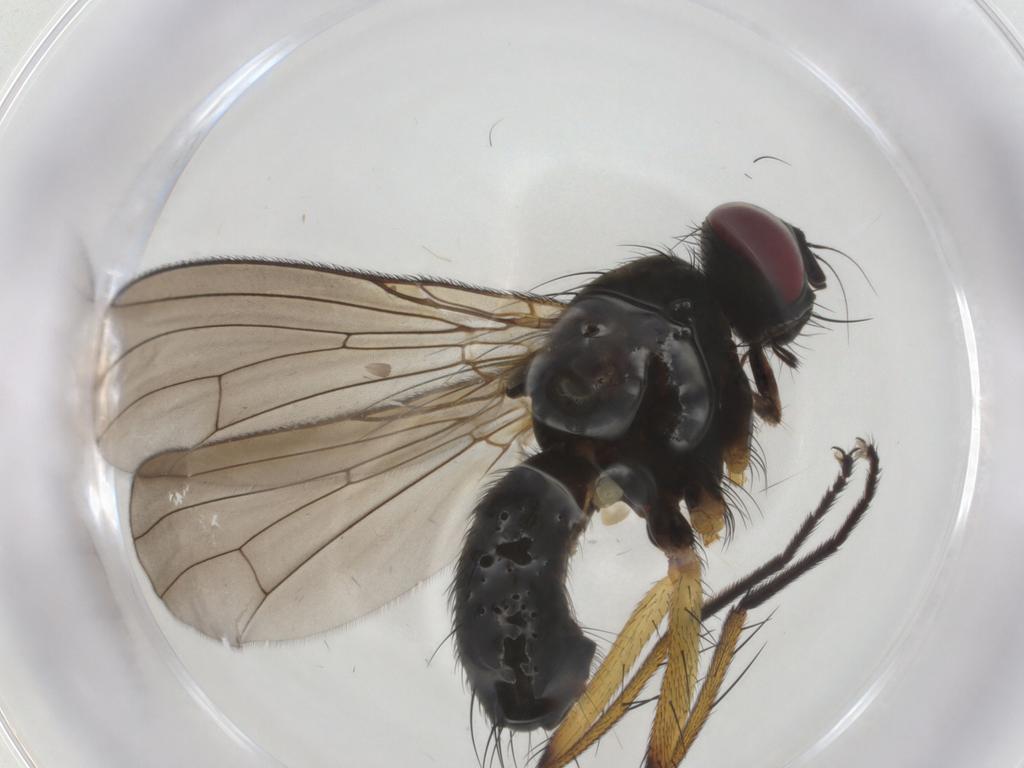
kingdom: Animalia
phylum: Arthropoda
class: Insecta
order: Diptera
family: Muscidae
